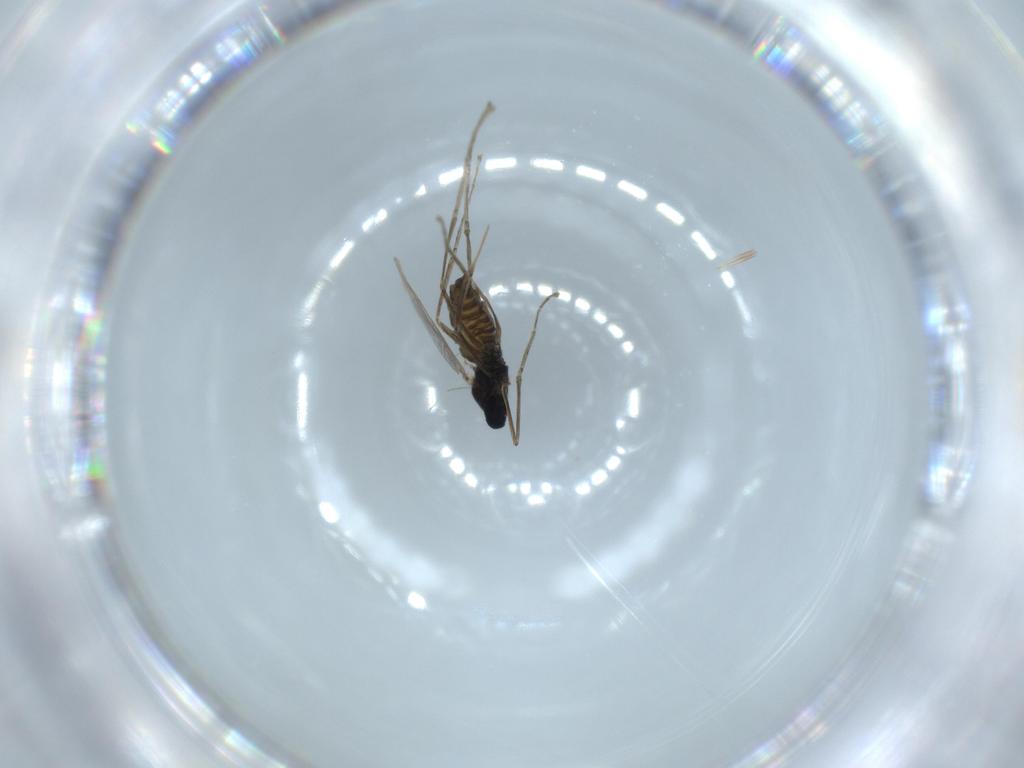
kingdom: Animalia
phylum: Arthropoda
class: Insecta
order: Diptera
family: Cecidomyiidae
